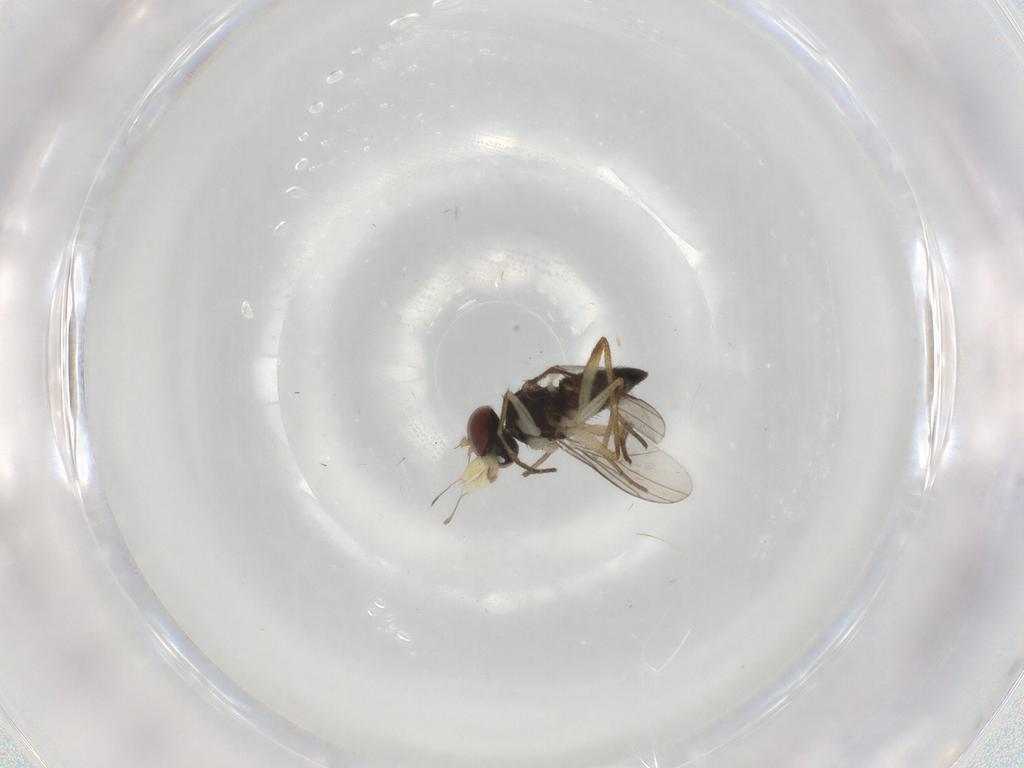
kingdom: Animalia
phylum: Arthropoda
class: Insecta
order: Diptera
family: Dolichopodidae
